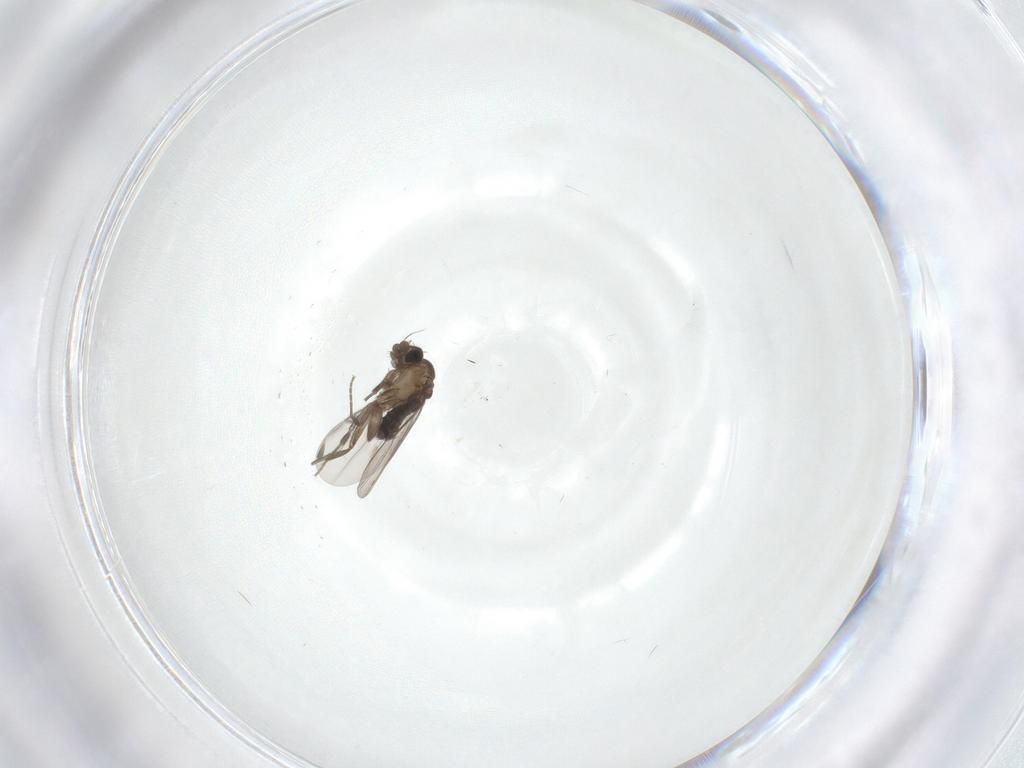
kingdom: Animalia
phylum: Arthropoda
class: Insecta
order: Diptera
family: Phoridae
